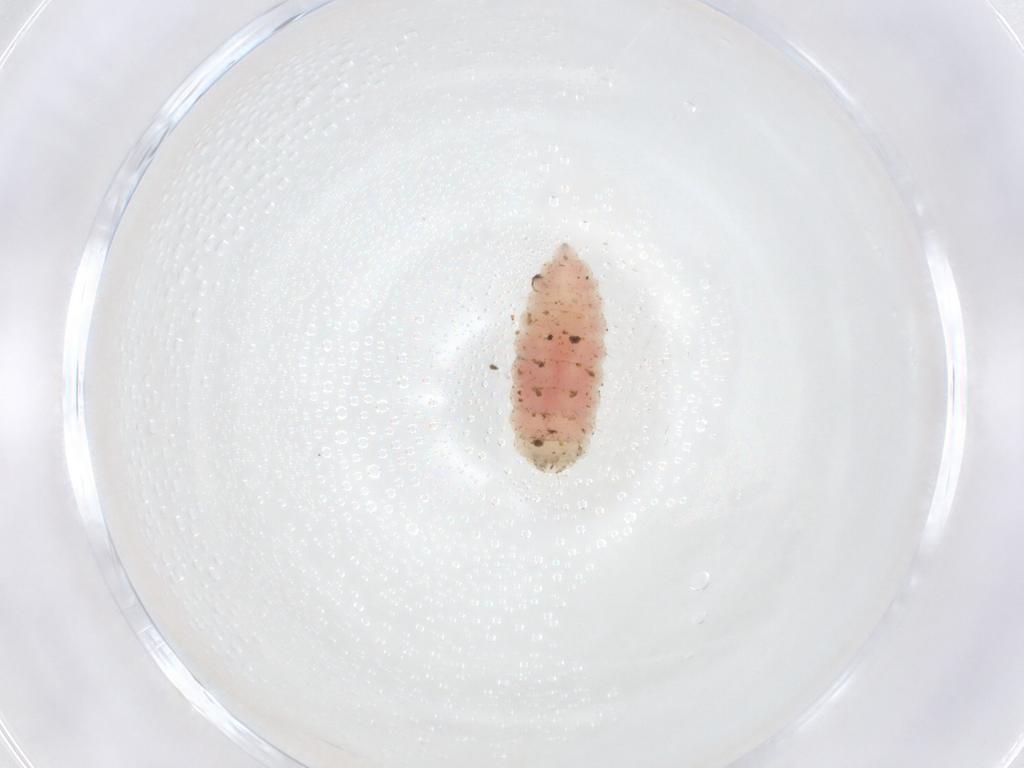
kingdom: Animalia
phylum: Arthropoda
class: Insecta
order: Diptera
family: Cecidomyiidae
